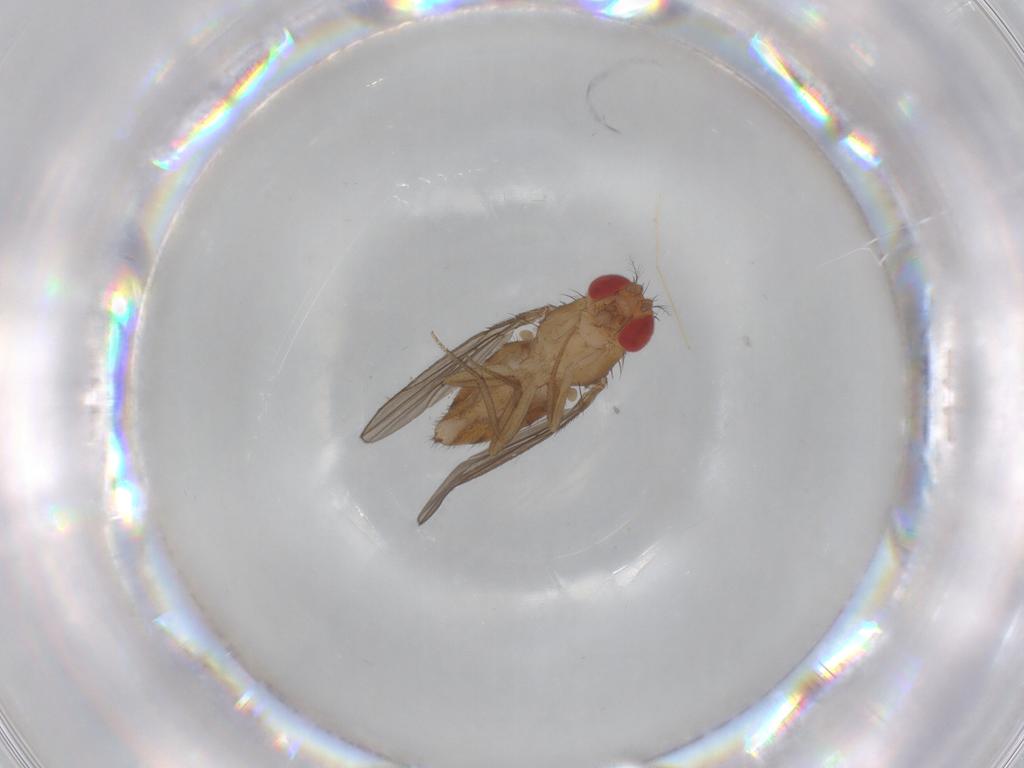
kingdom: Animalia
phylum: Arthropoda
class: Insecta
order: Diptera
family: Drosophilidae
